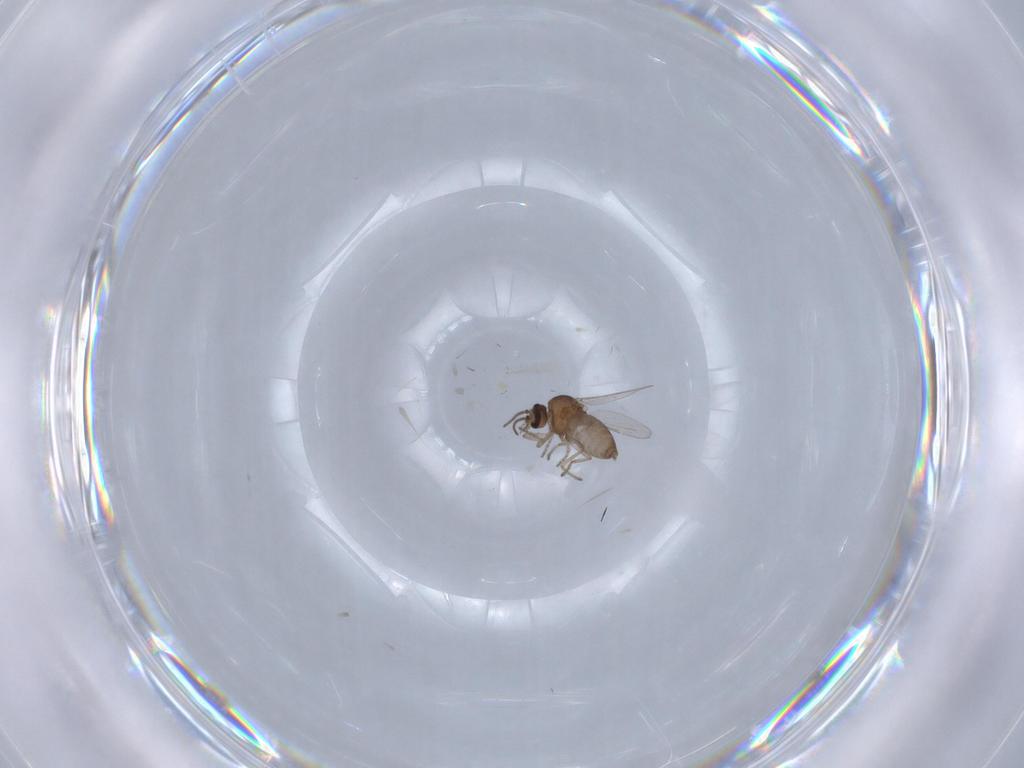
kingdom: Animalia
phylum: Arthropoda
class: Insecta
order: Diptera
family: Ceratopogonidae
